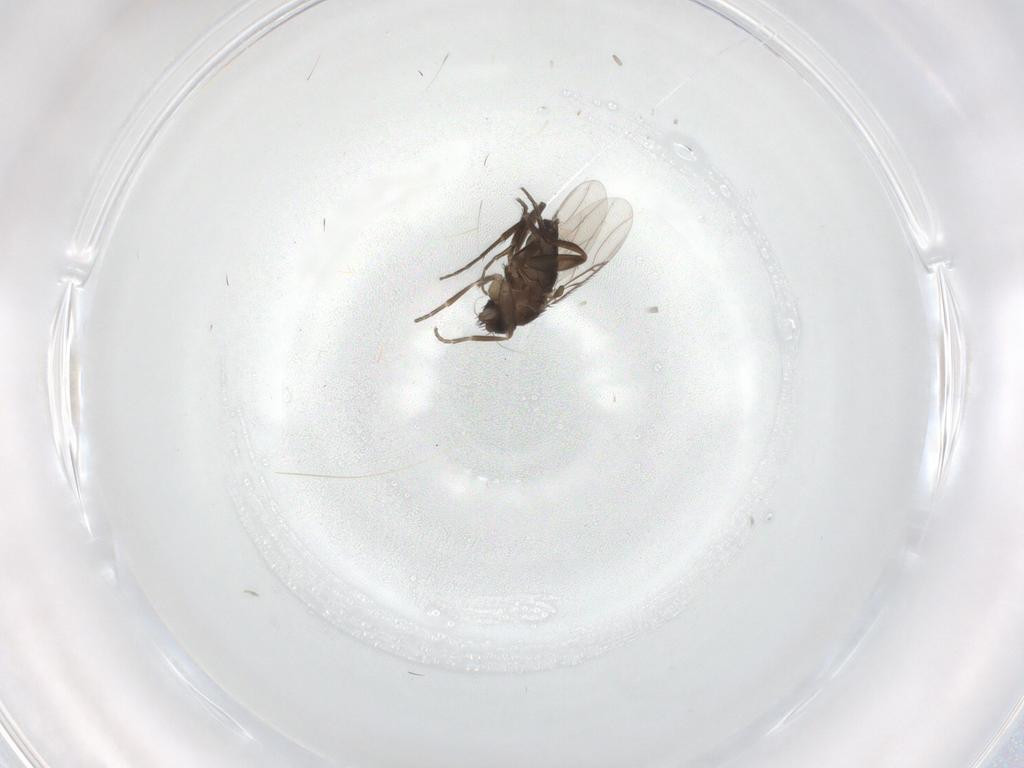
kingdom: Animalia
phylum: Arthropoda
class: Insecta
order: Diptera
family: Phoridae
